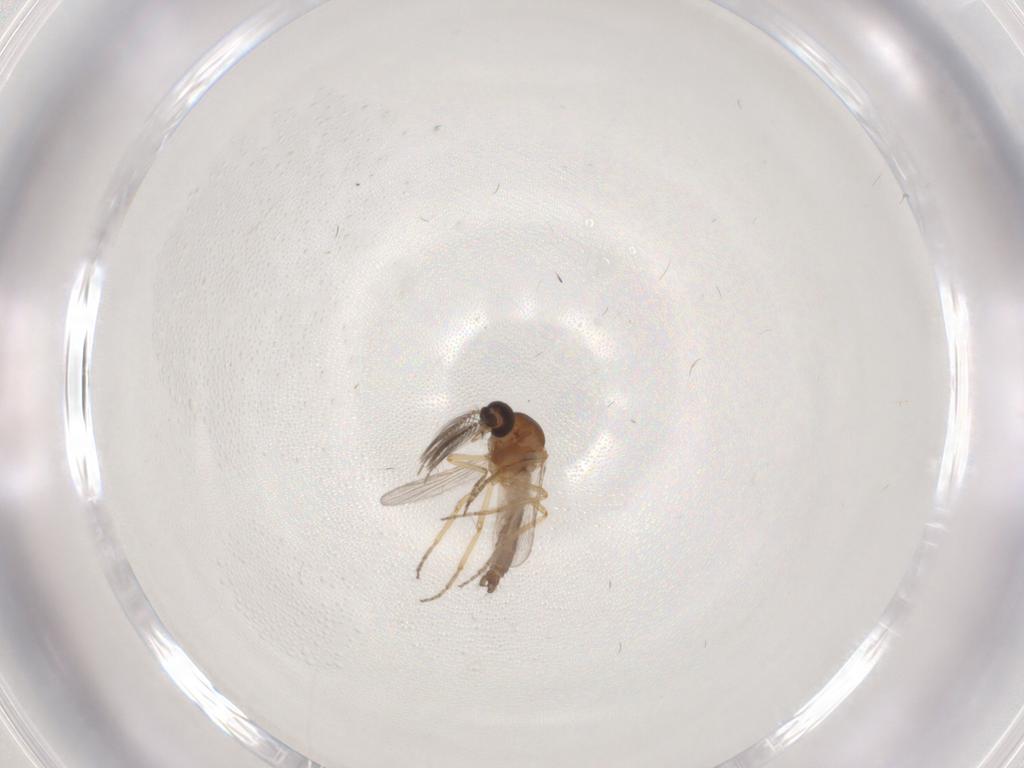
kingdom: Animalia
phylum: Arthropoda
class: Insecta
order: Diptera
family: Ceratopogonidae
